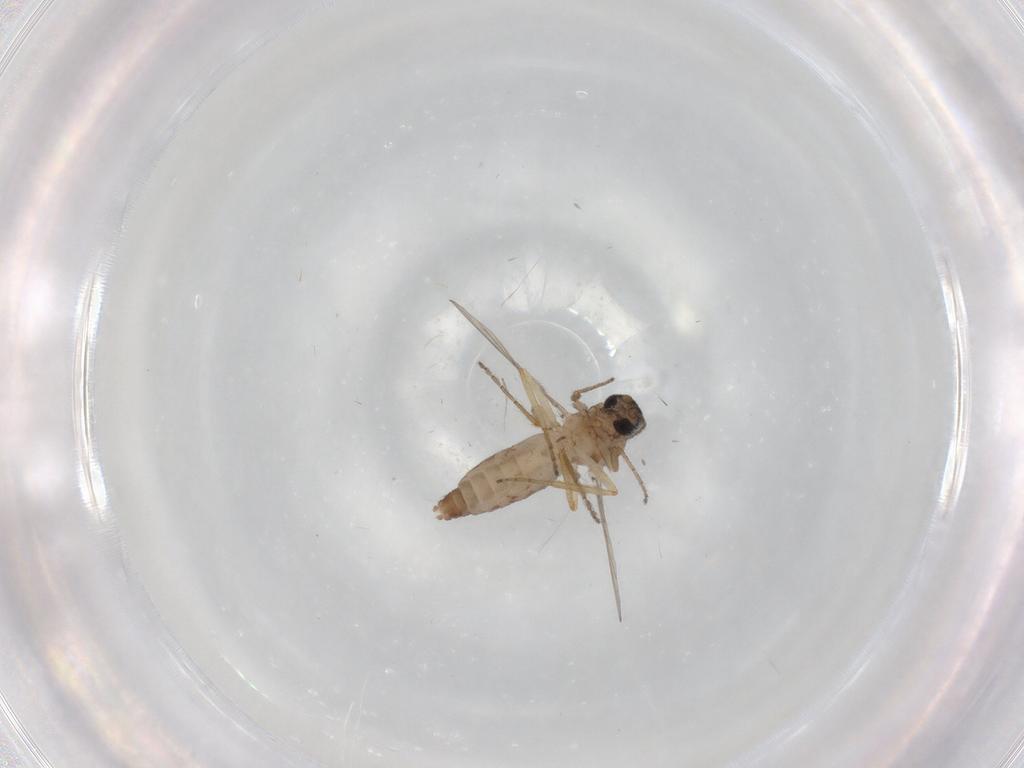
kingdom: Animalia
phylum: Arthropoda
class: Insecta
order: Diptera
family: Ceratopogonidae
